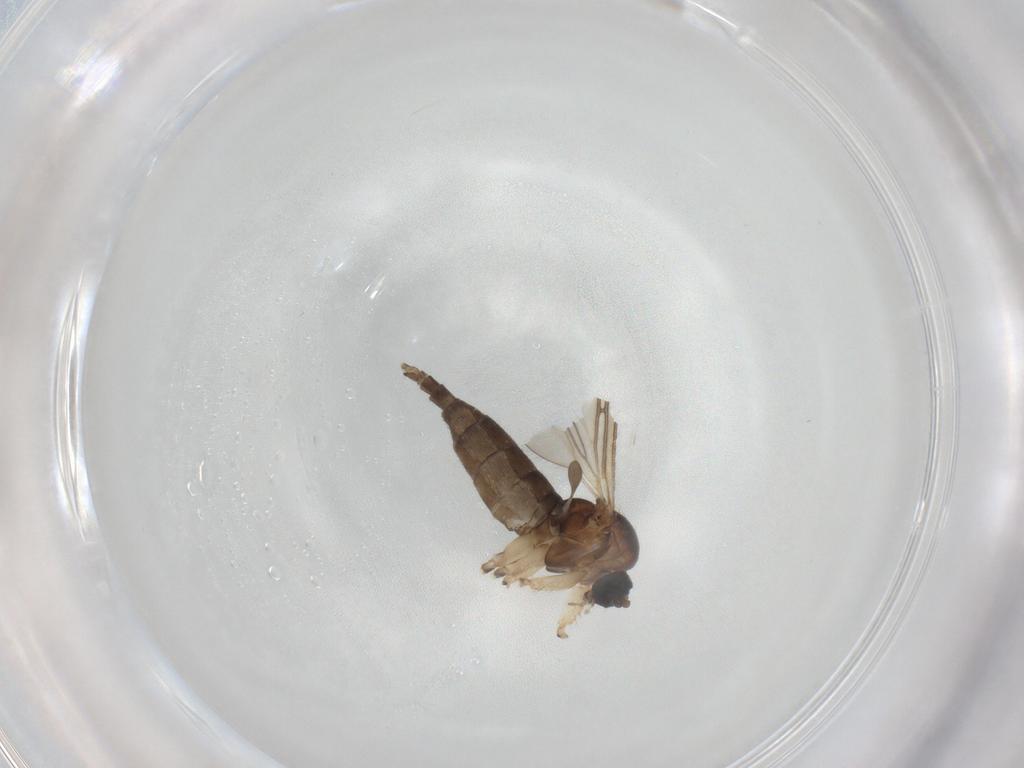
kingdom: Animalia
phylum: Arthropoda
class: Insecta
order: Diptera
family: Sciaridae
